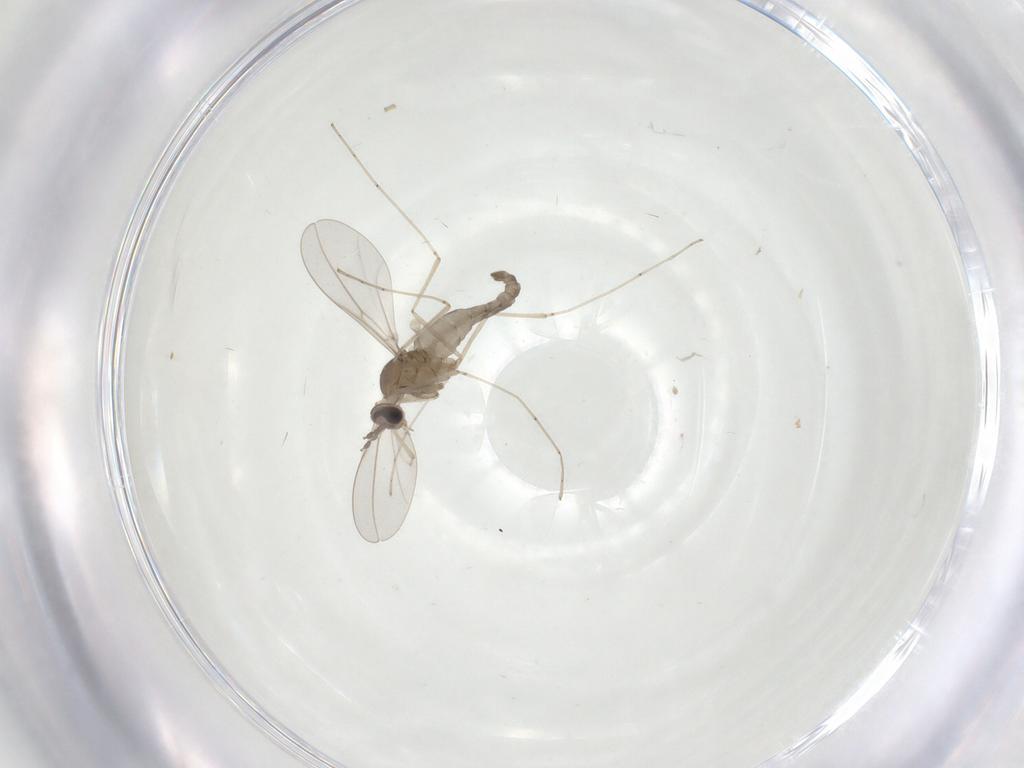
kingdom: Animalia
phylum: Arthropoda
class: Insecta
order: Diptera
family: Cecidomyiidae
